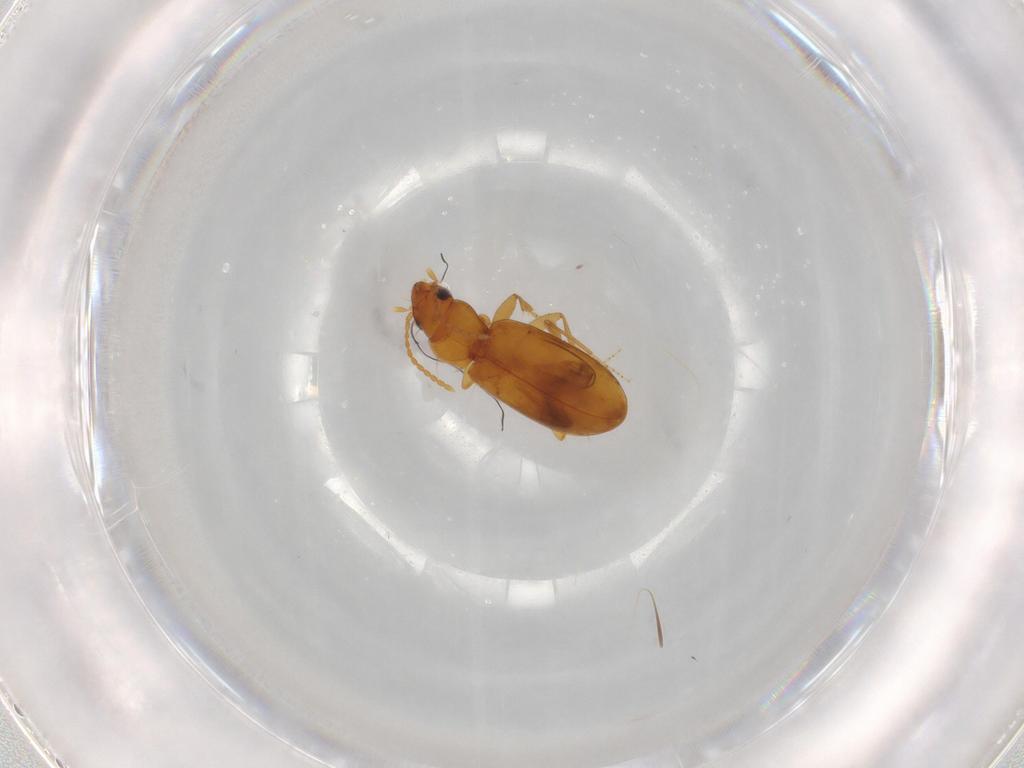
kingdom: Animalia
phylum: Arthropoda
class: Insecta
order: Coleoptera
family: Carabidae
